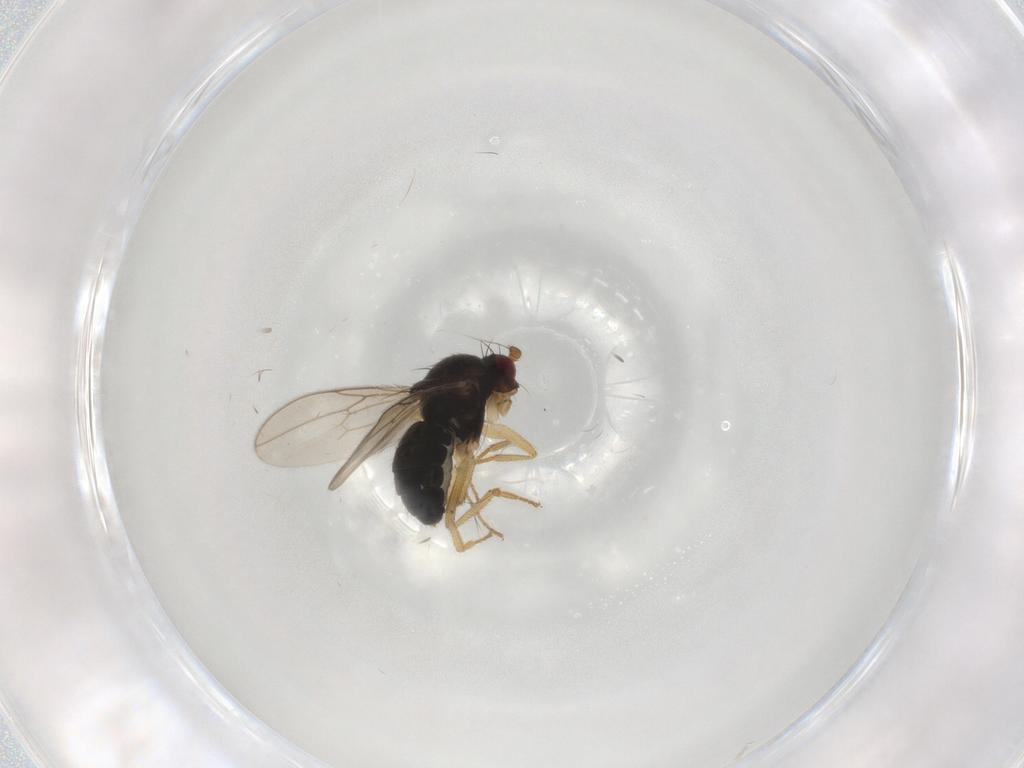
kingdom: Animalia
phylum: Arthropoda
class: Insecta
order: Diptera
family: Sphaeroceridae
